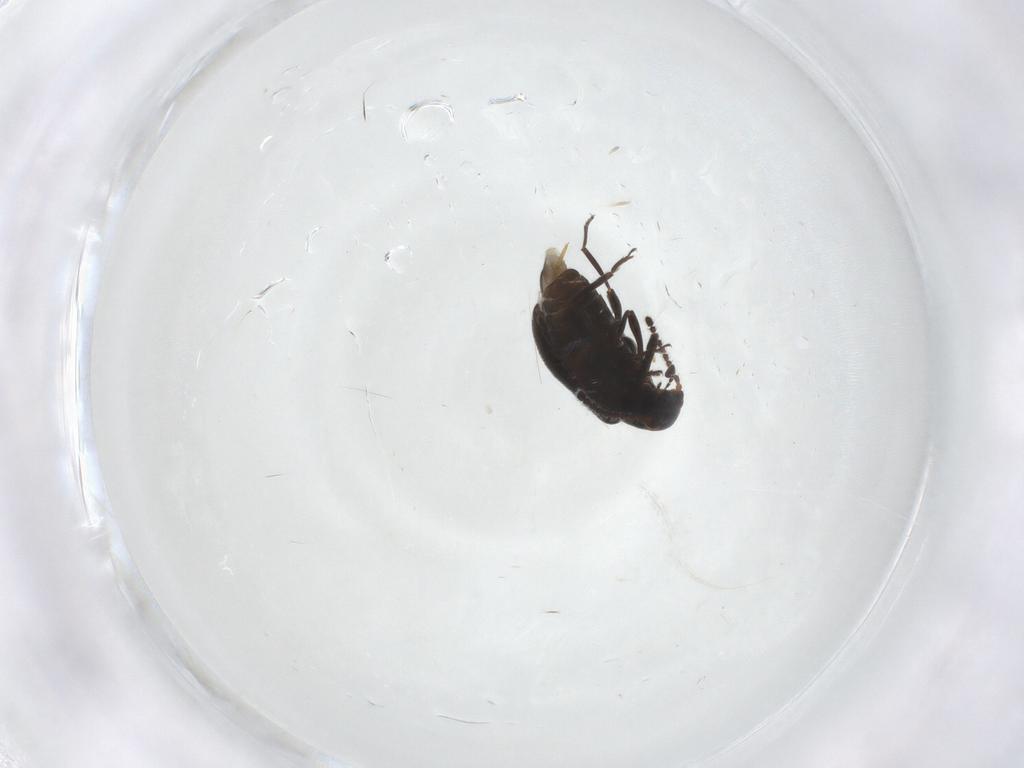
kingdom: Animalia
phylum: Arthropoda
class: Insecta
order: Coleoptera
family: Aderidae
